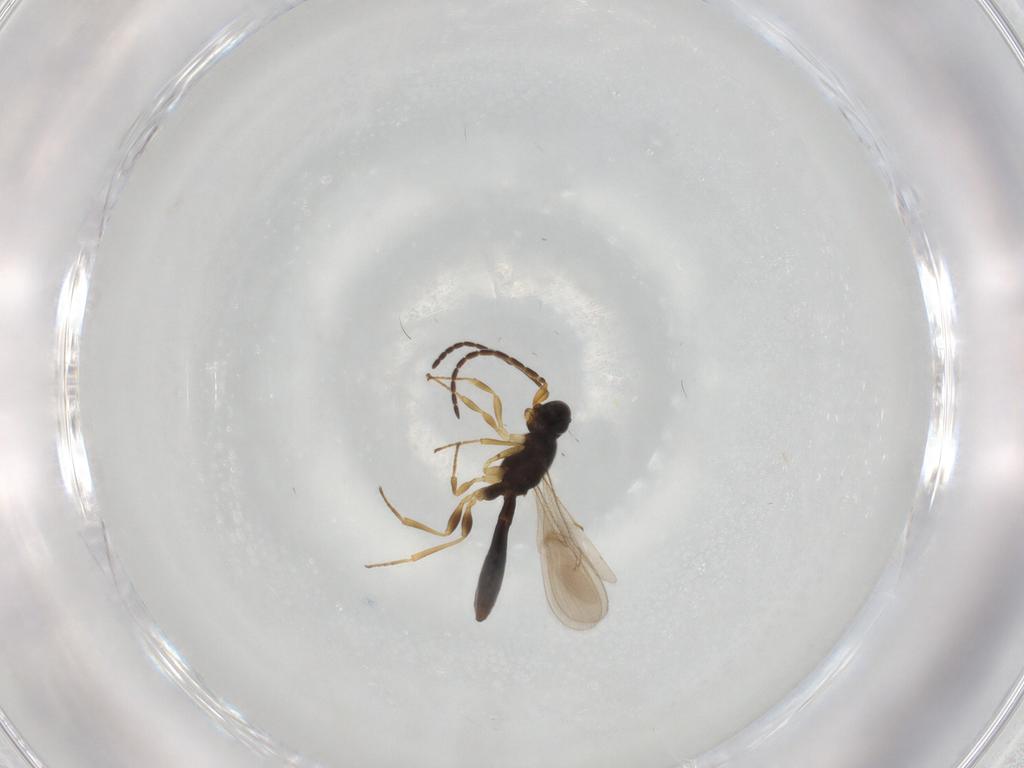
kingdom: Animalia
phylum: Arthropoda
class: Insecta
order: Hymenoptera
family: Scelionidae
